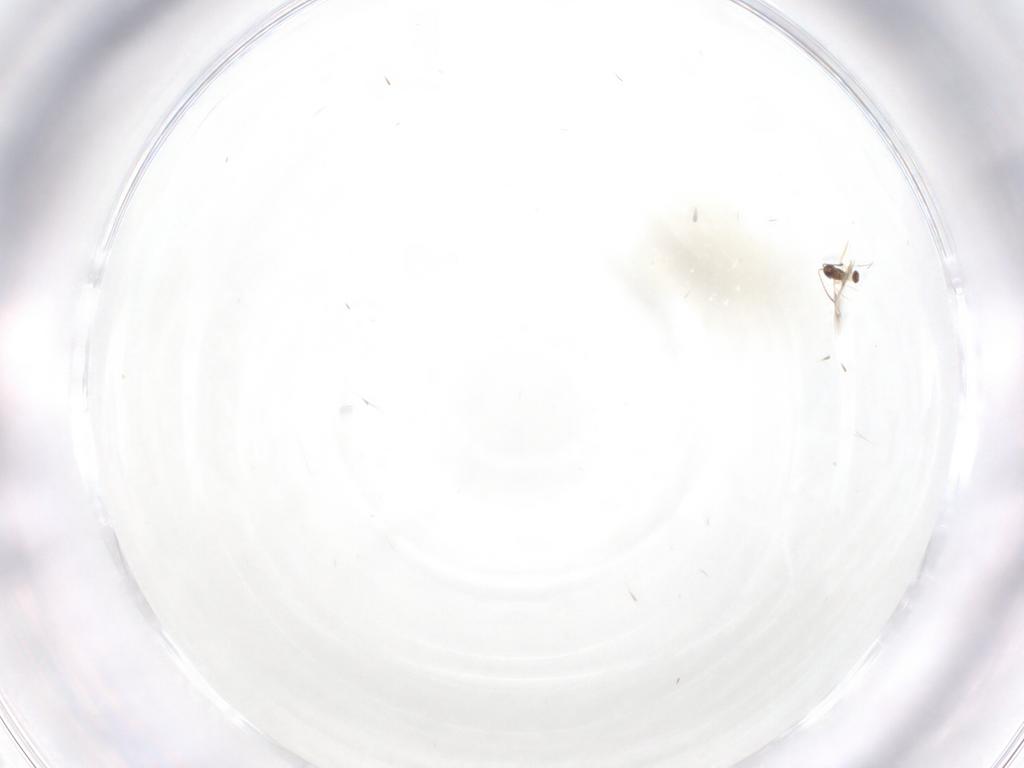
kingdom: Animalia
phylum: Arthropoda
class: Insecta
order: Hymenoptera
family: Mymarommatidae
